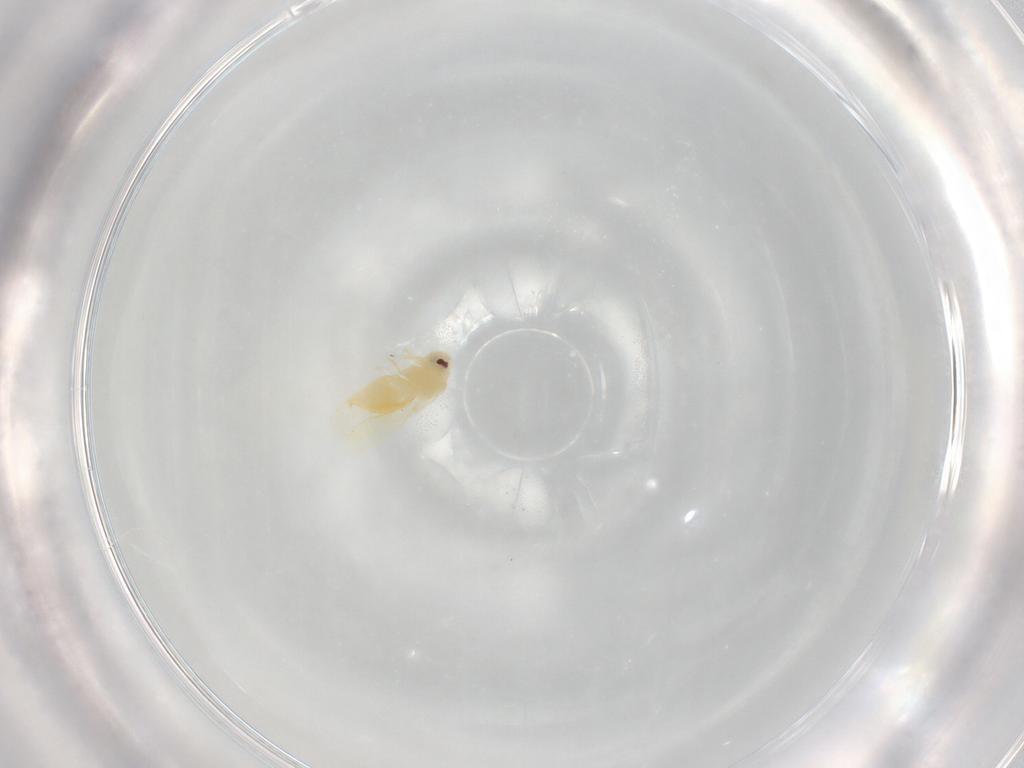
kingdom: Animalia
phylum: Arthropoda
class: Insecta
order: Hemiptera
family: Aleyrodidae
